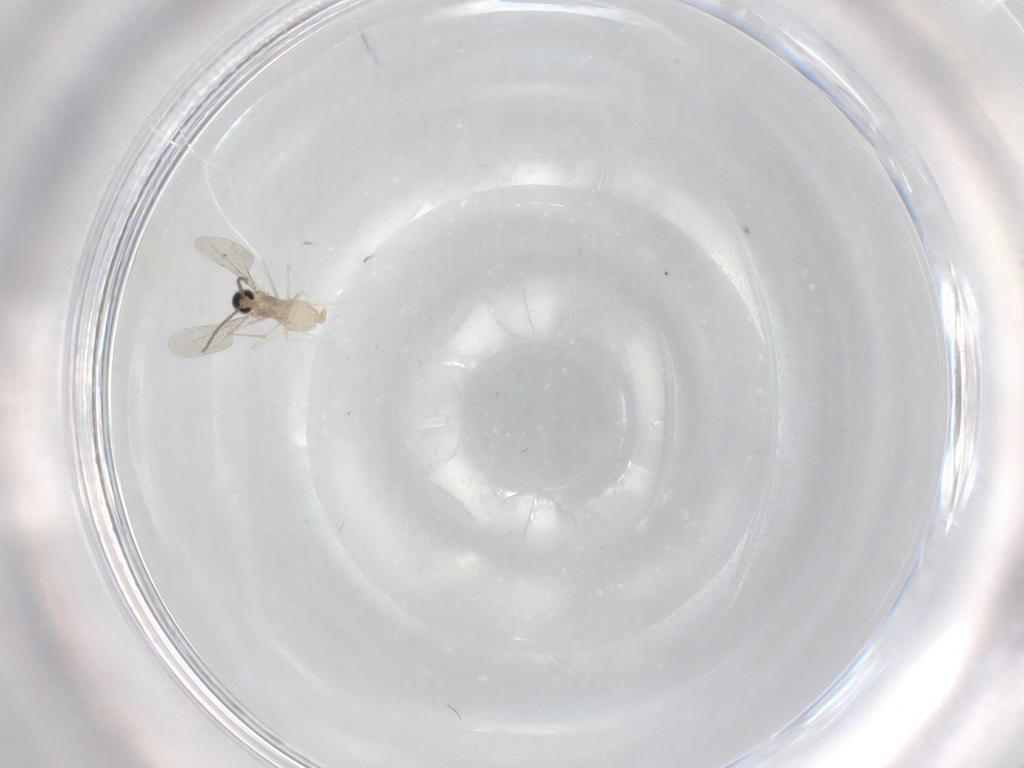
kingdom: Animalia
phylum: Arthropoda
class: Insecta
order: Diptera
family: Cecidomyiidae
